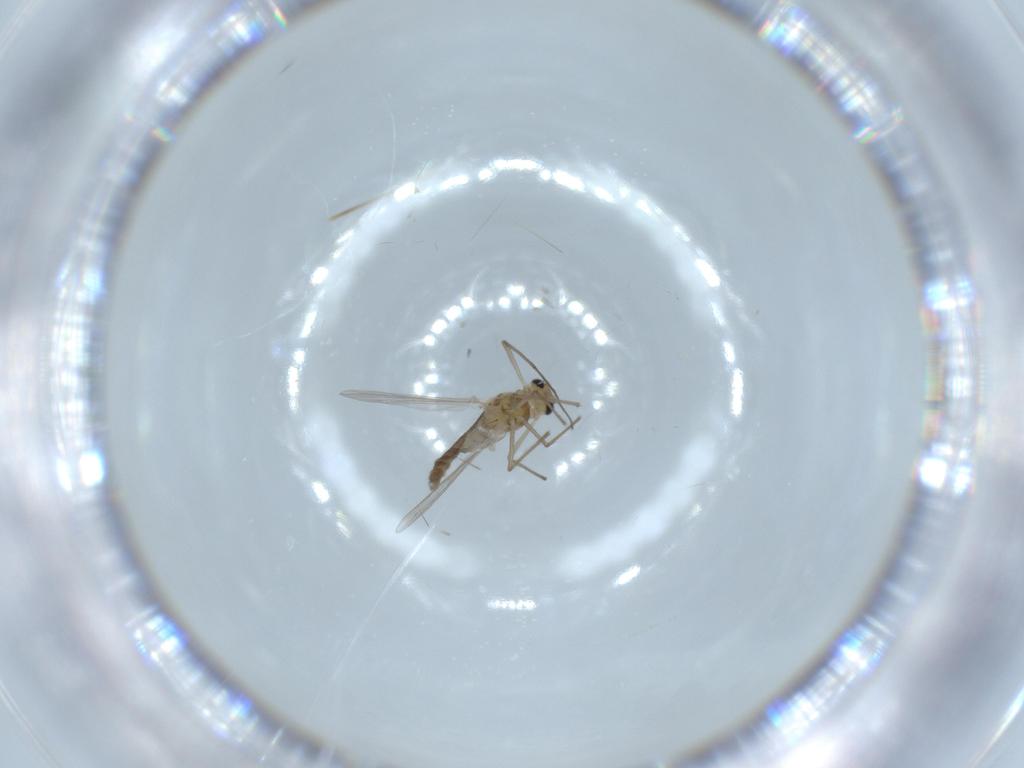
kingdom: Animalia
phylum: Arthropoda
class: Insecta
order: Diptera
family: Chironomidae
